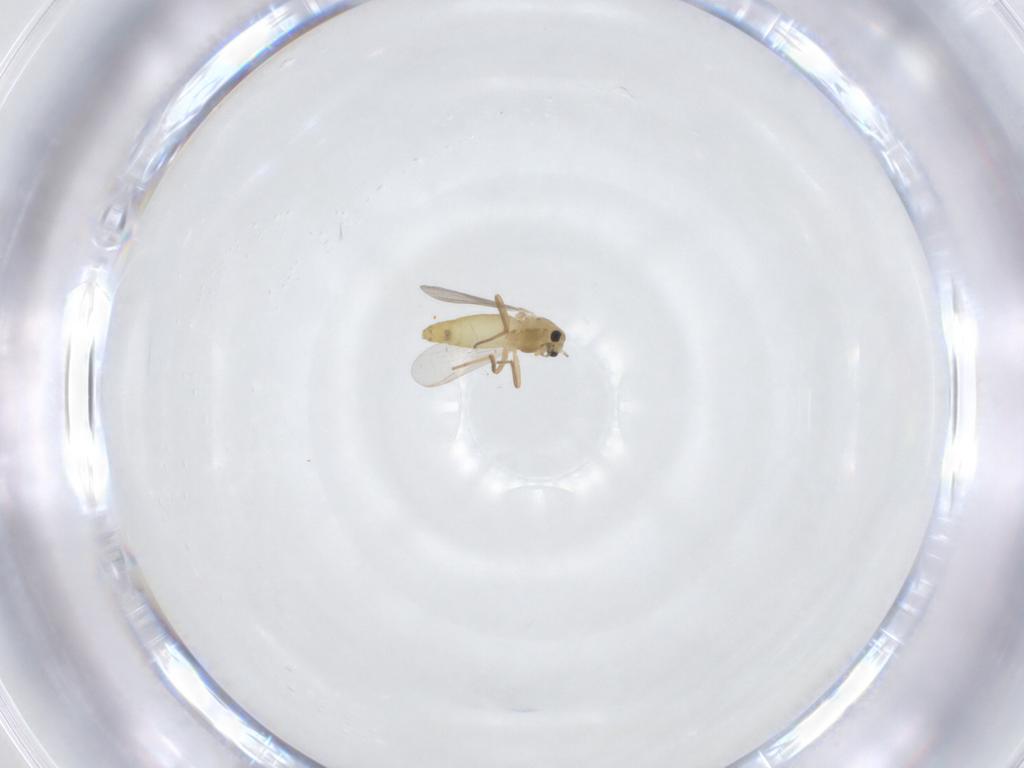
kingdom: Animalia
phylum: Arthropoda
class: Insecta
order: Diptera
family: Chironomidae
